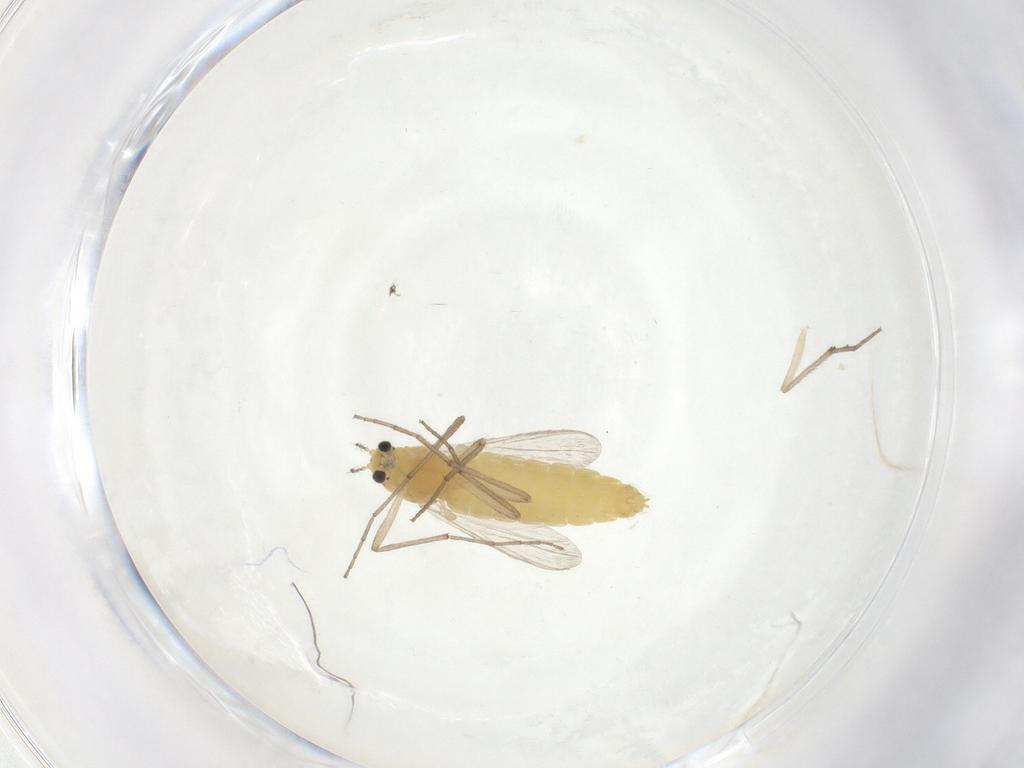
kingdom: Animalia
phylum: Arthropoda
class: Insecta
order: Diptera
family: Chironomidae
